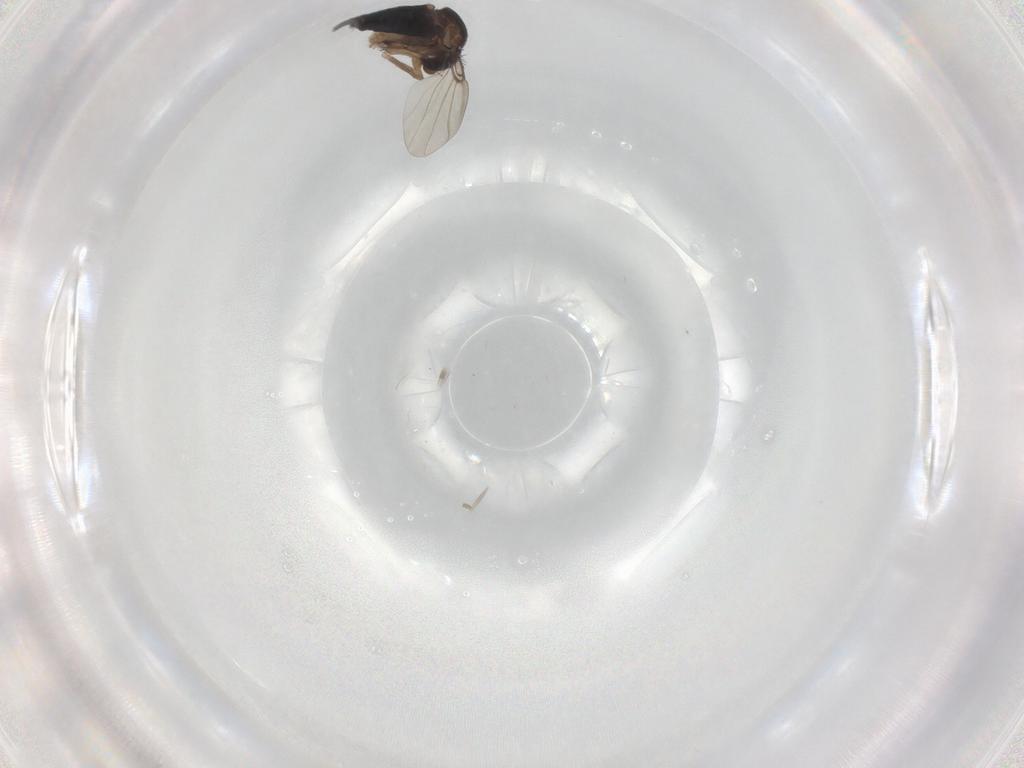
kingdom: Animalia
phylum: Arthropoda
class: Insecta
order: Diptera
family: Phoridae
